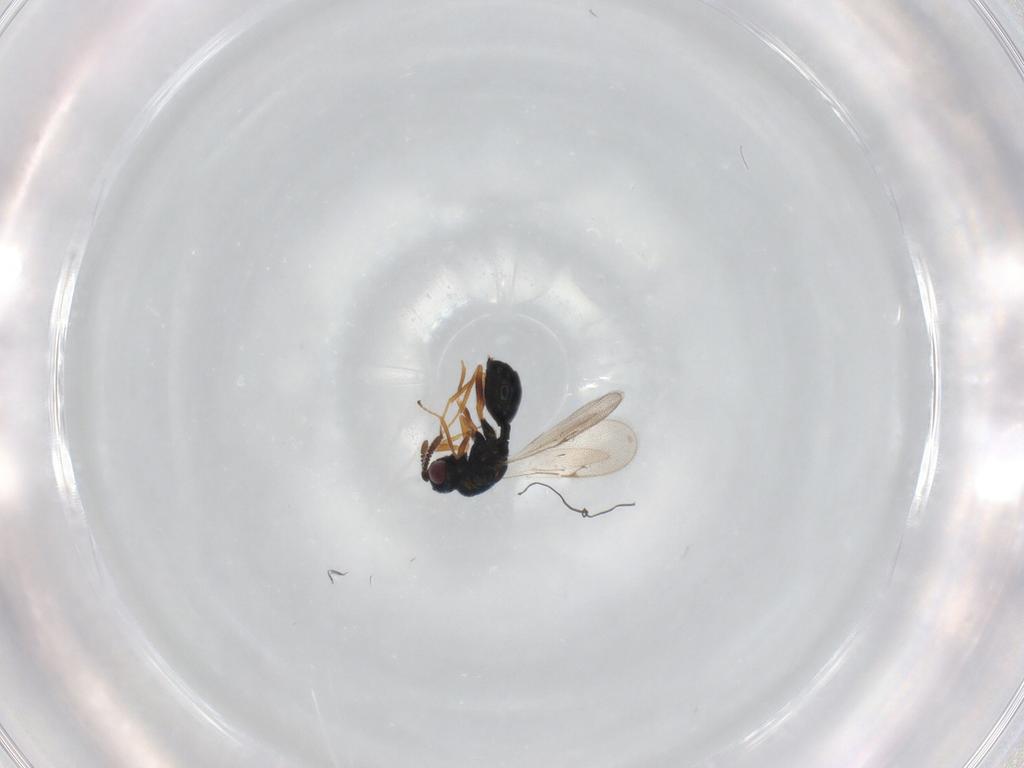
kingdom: Animalia
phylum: Arthropoda
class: Insecta
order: Hymenoptera
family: Chalcidoidea_incertae_sedis
